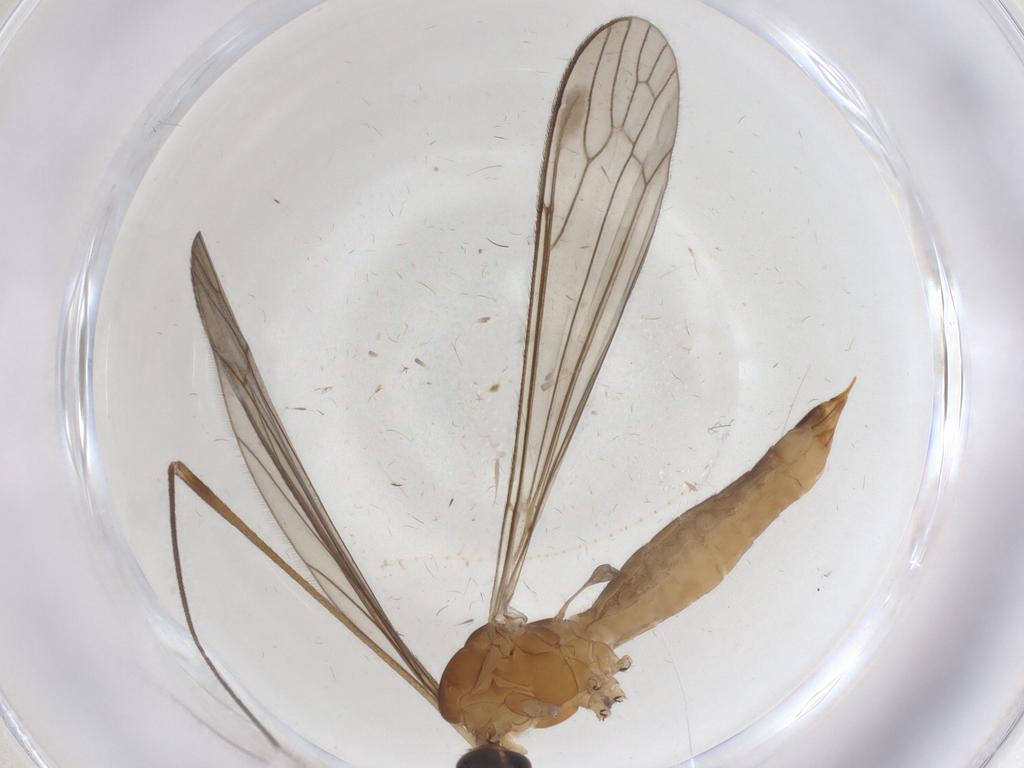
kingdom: Animalia
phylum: Arthropoda
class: Insecta
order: Diptera
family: Limoniidae
